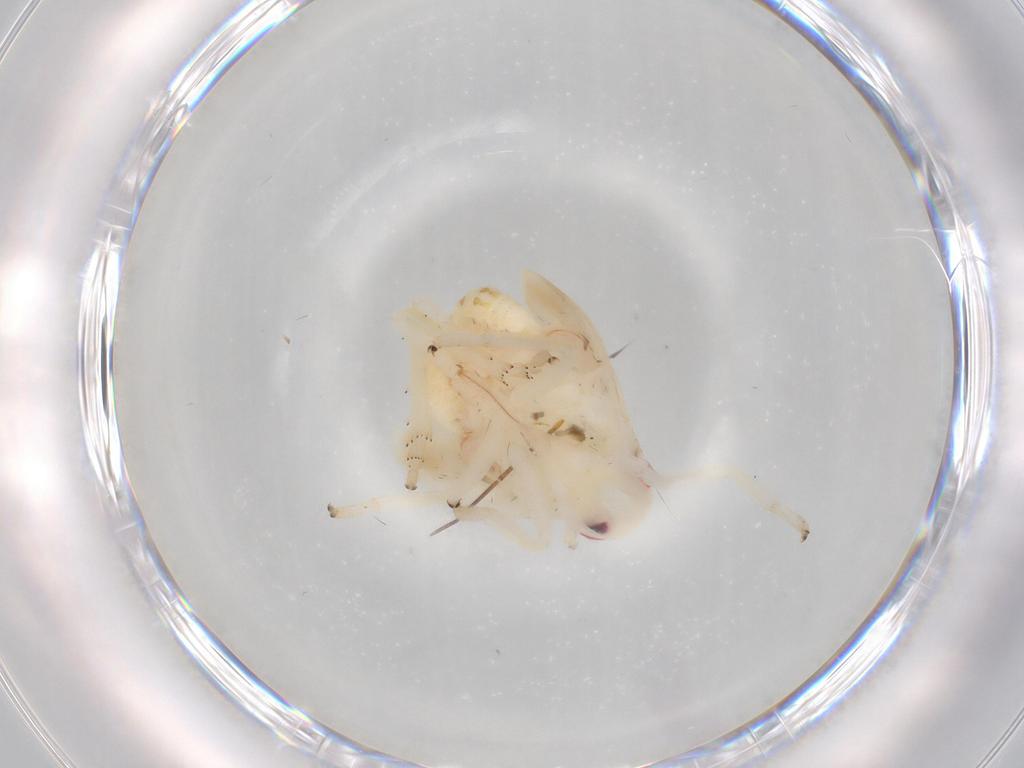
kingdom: Animalia
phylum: Arthropoda
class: Insecta
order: Hemiptera
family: Fulgoroidea_incertae_sedis
